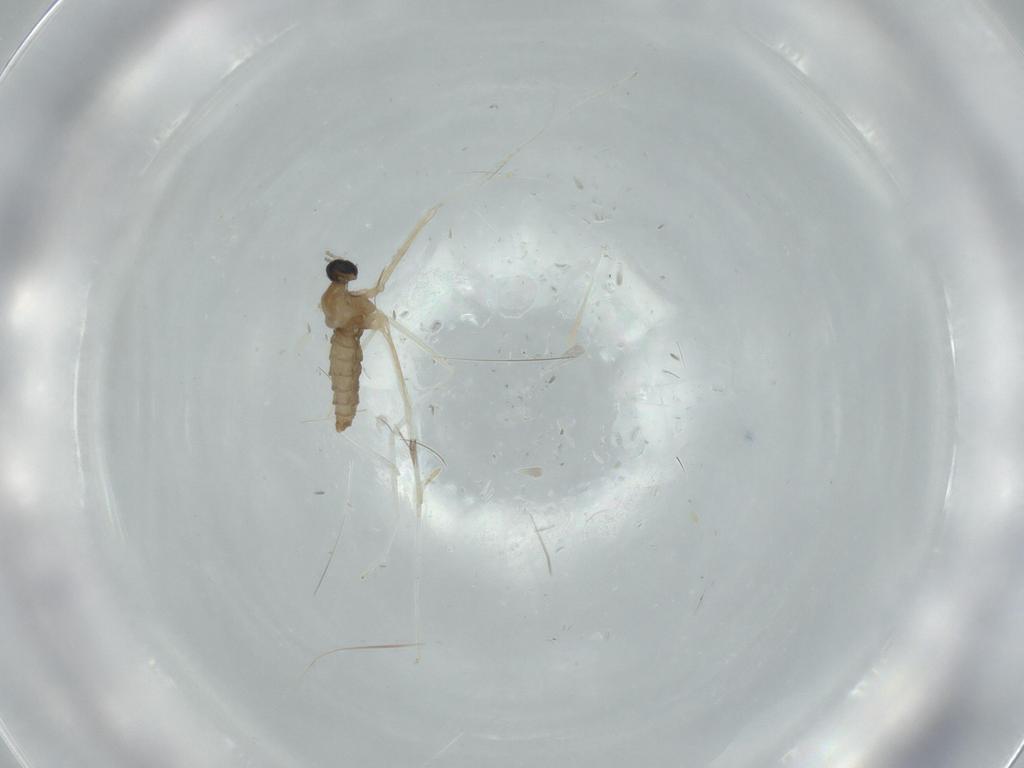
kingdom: Animalia
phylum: Arthropoda
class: Insecta
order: Diptera
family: Cecidomyiidae
